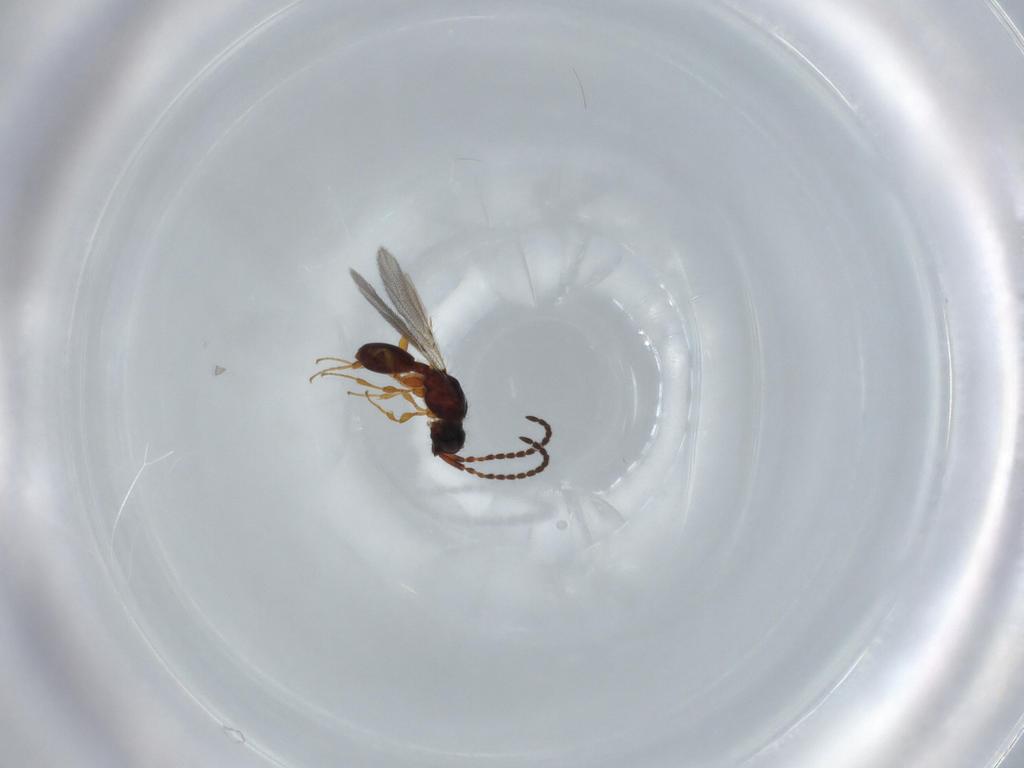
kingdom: Animalia
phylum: Arthropoda
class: Insecta
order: Hymenoptera
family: Diapriidae
